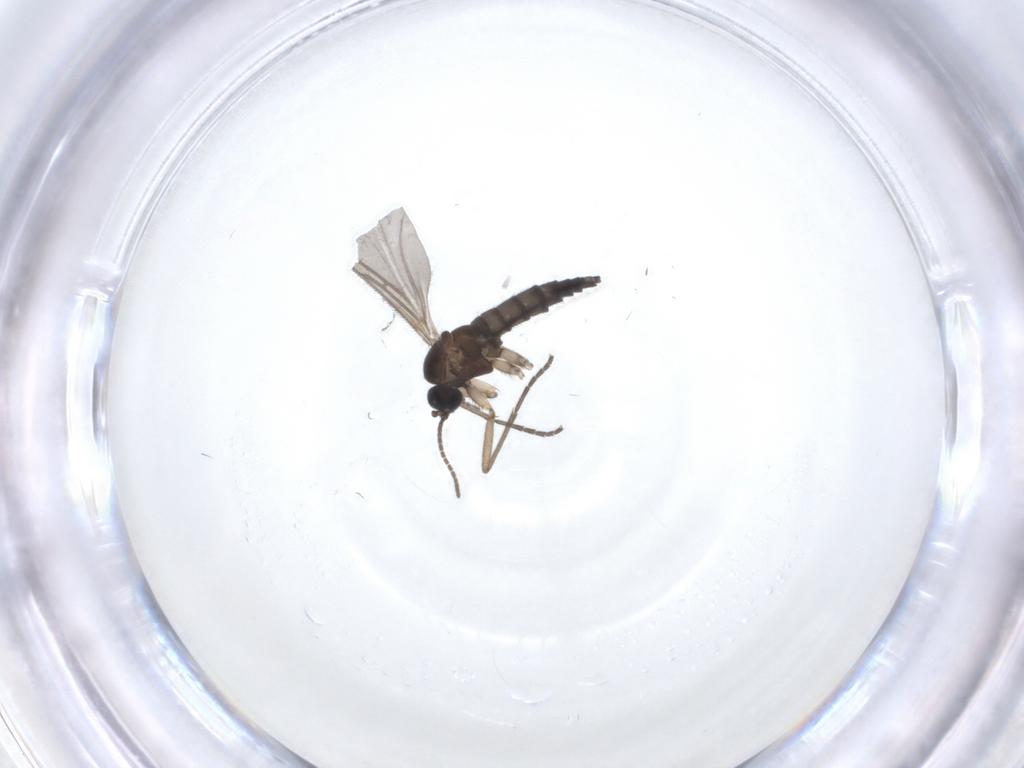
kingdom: Animalia
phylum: Arthropoda
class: Insecta
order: Diptera
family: Sciaridae
